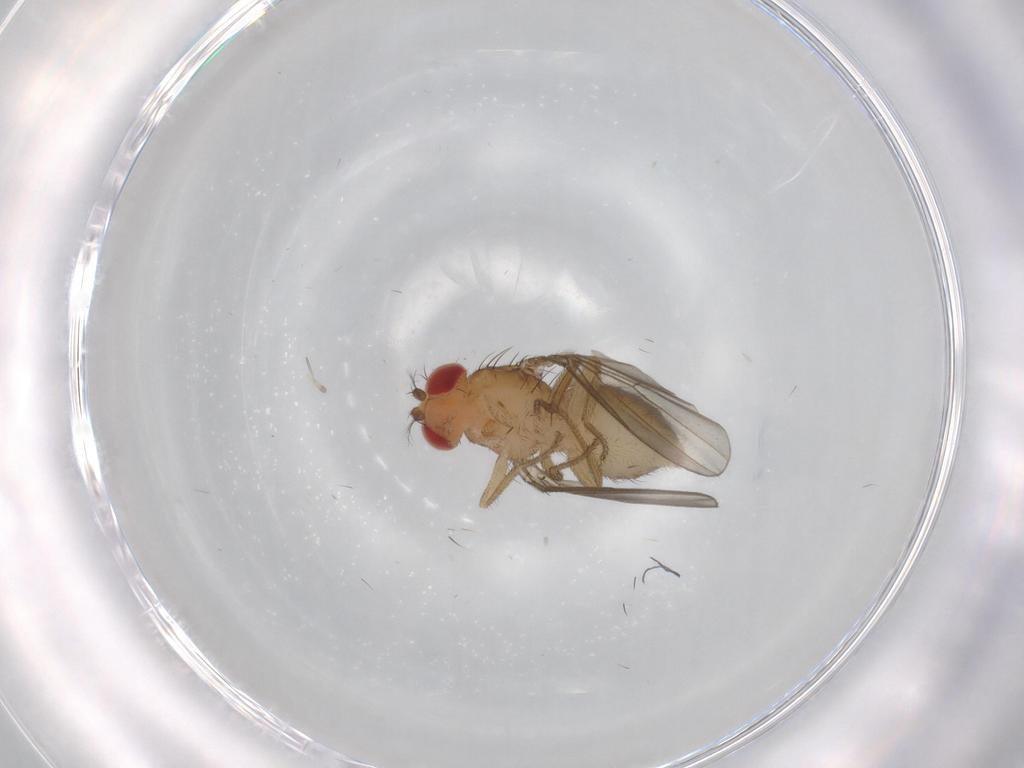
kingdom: Animalia
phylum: Arthropoda
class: Insecta
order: Diptera
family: Drosophilidae
